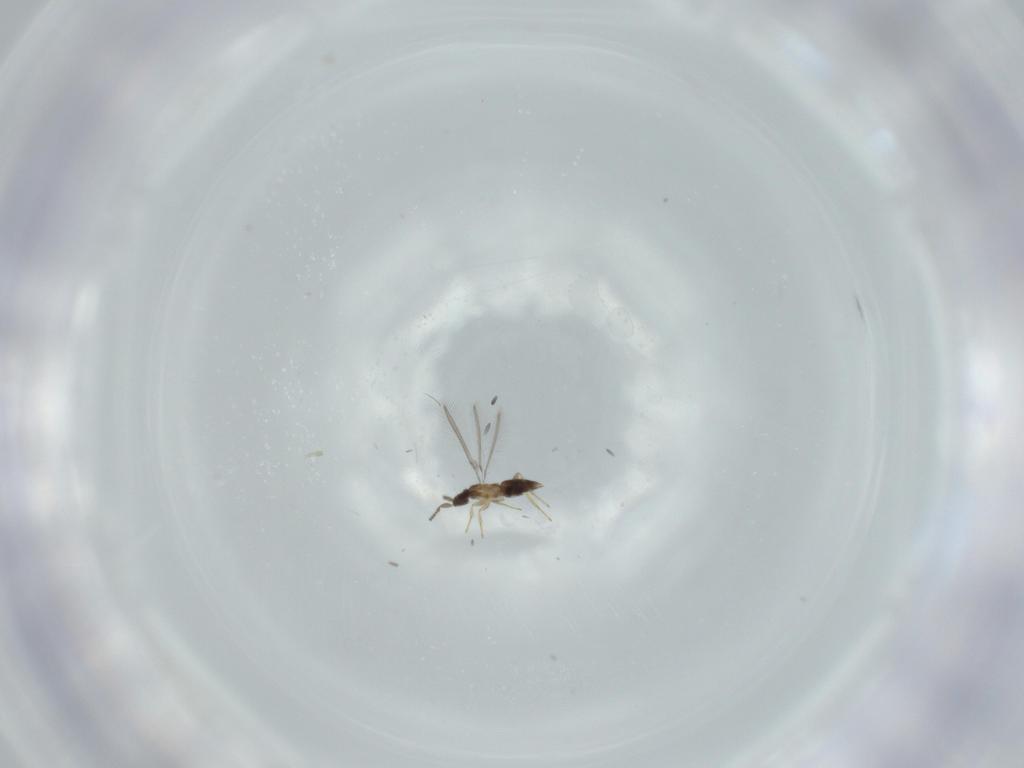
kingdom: Animalia
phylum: Arthropoda
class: Insecta
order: Hymenoptera
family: Mymaridae
